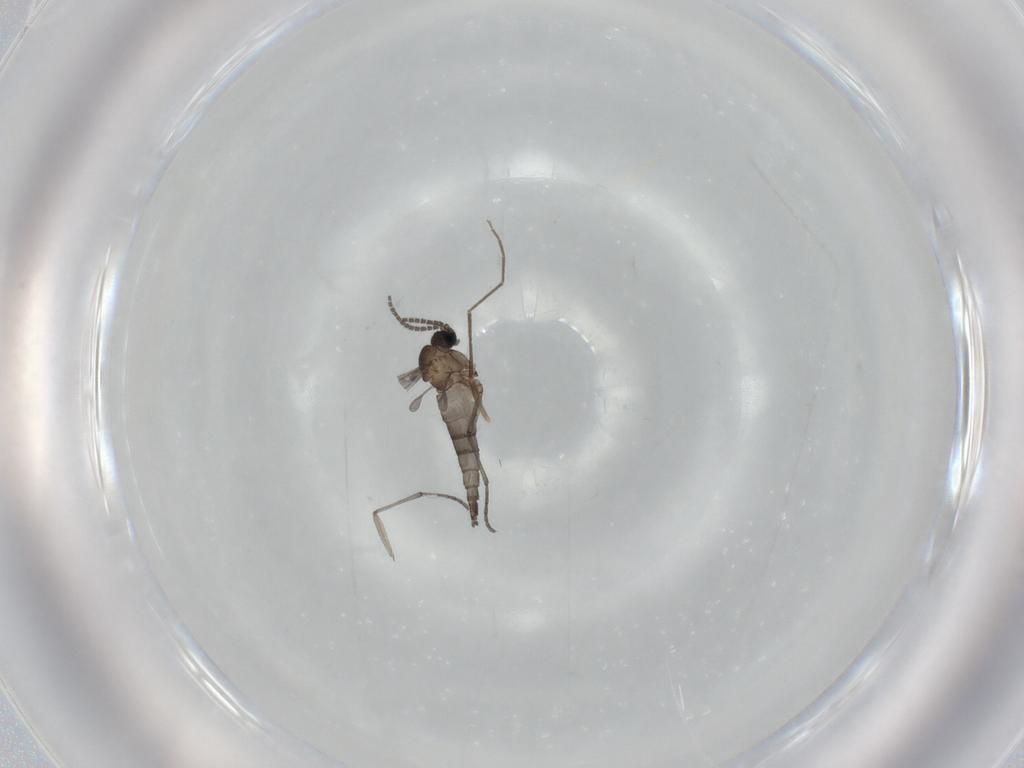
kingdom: Animalia
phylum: Arthropoda
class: Insecta
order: Diptera
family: Sciaridae
